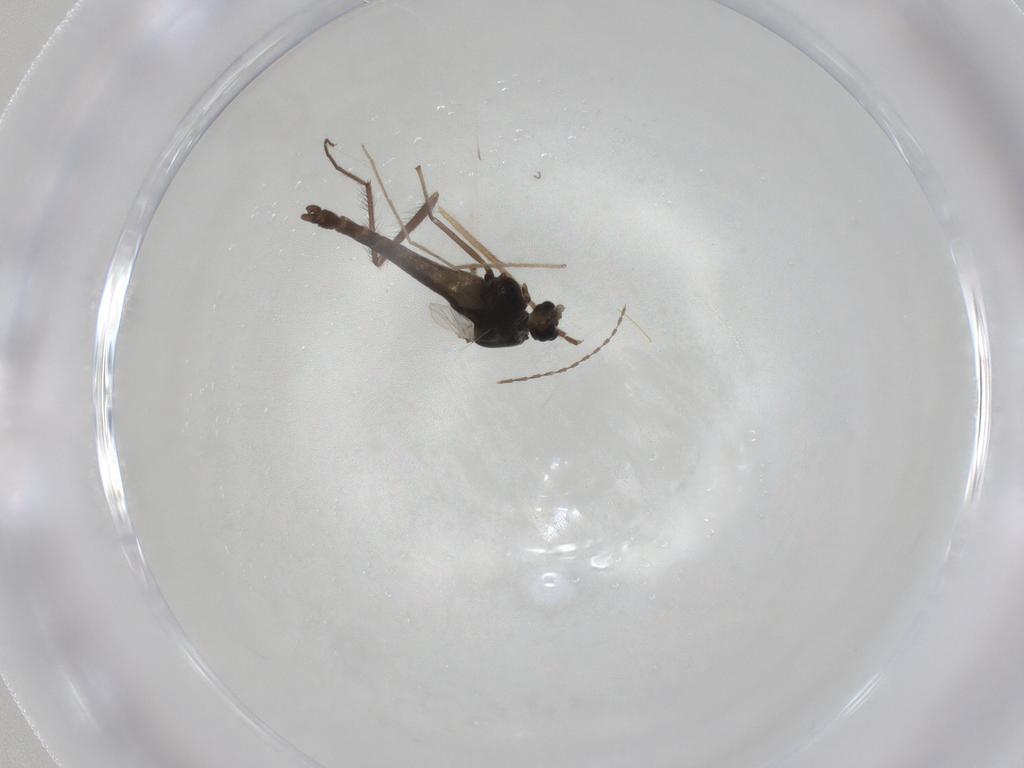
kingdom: Animalia
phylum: Arthropoda
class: Insecta
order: Diptera
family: Chironomidae
